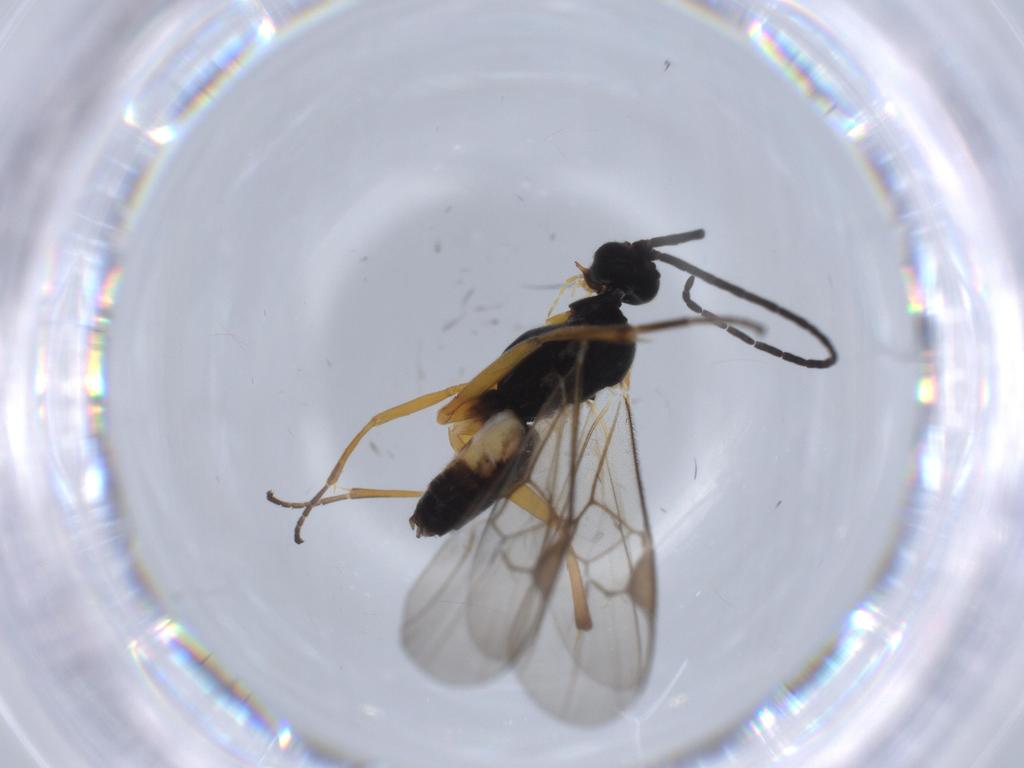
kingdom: Animalia
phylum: Arthropoda
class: Insecta
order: Hymenoptera
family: Braconidae
